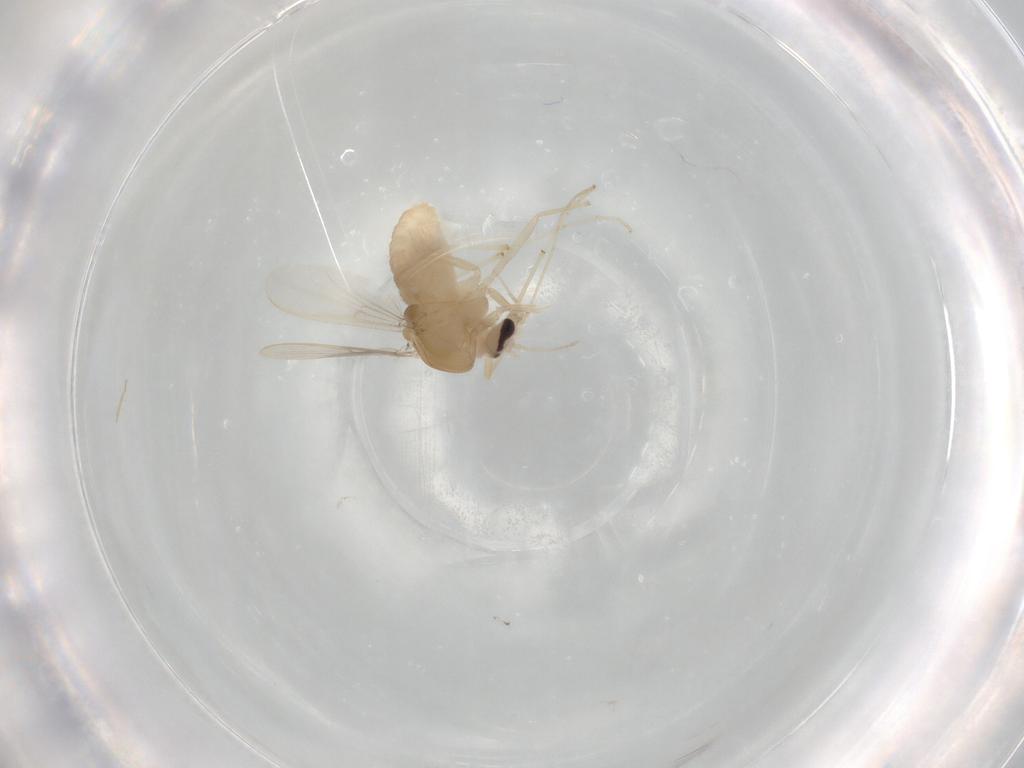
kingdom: Animalia
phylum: Arthropoda
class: Insecta
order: Diptera
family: Chironomidae
